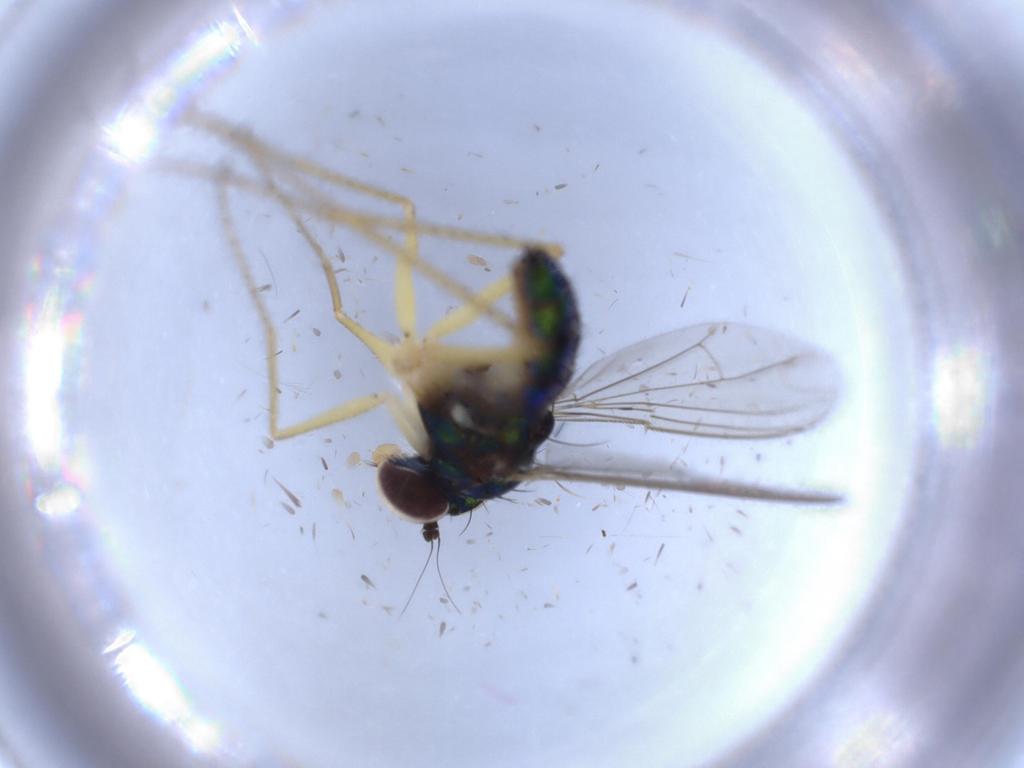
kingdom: Animalia
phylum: Arthropoda
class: Insecta
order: Diptera
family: Dolichopodidae
